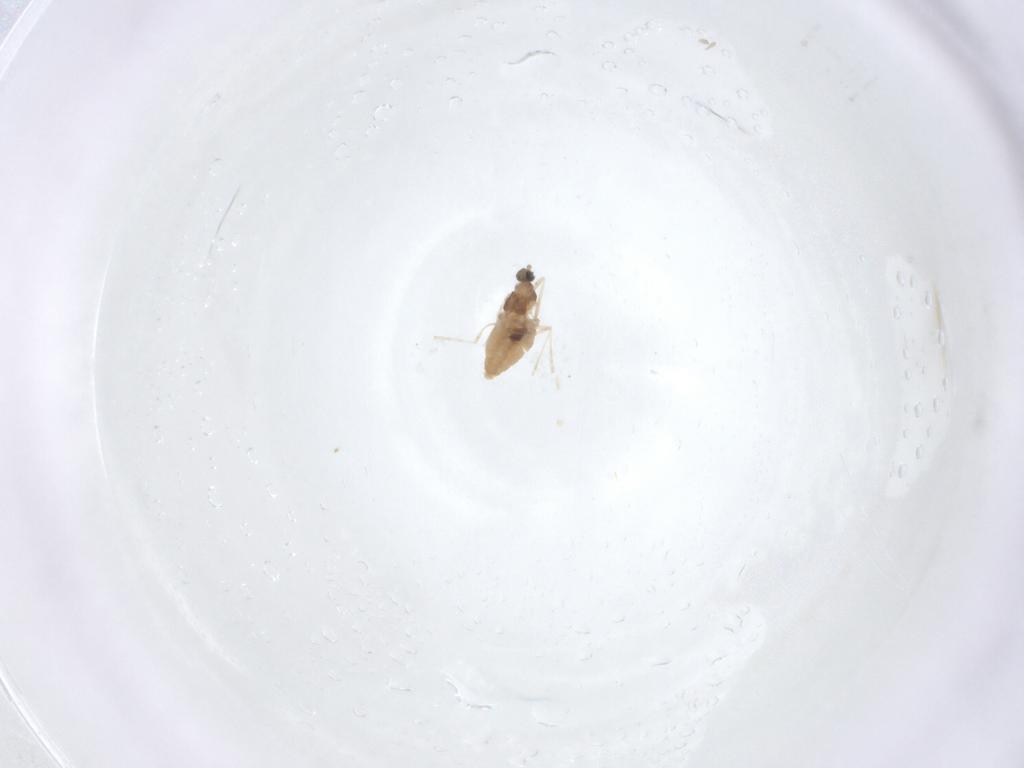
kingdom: Animalia
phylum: Arthropoda
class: Insecta
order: Diptera
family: Cecidomyiidae
